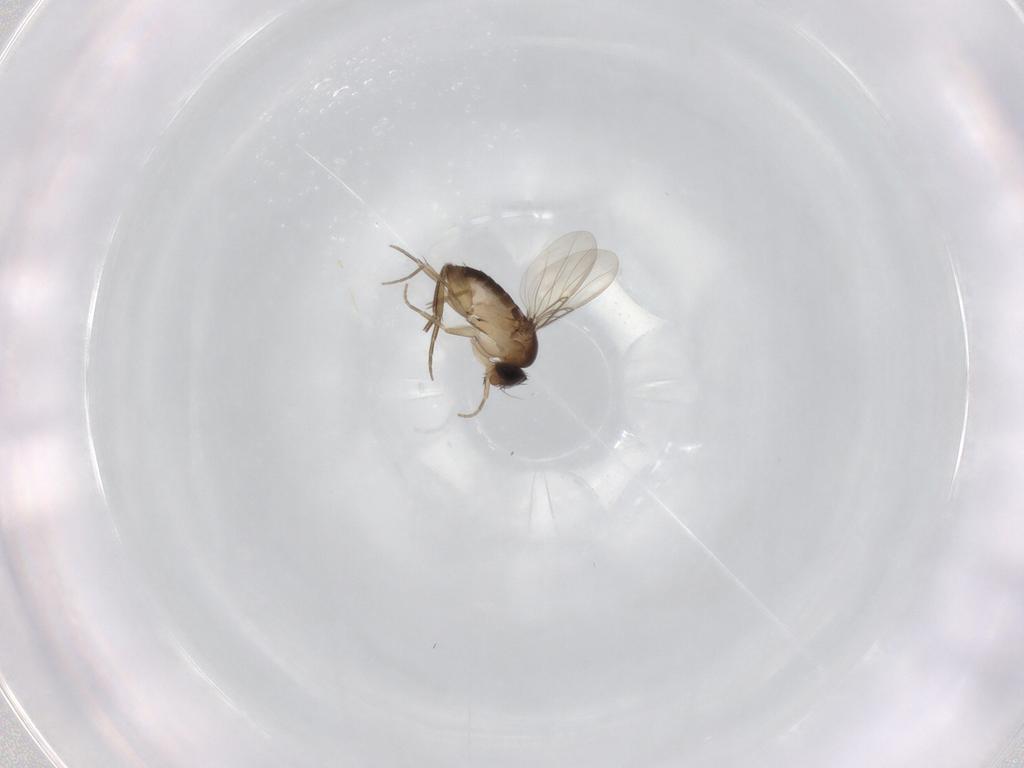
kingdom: Animalia
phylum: Arthropoda
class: Insecta
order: Diptera
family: Phoridae
